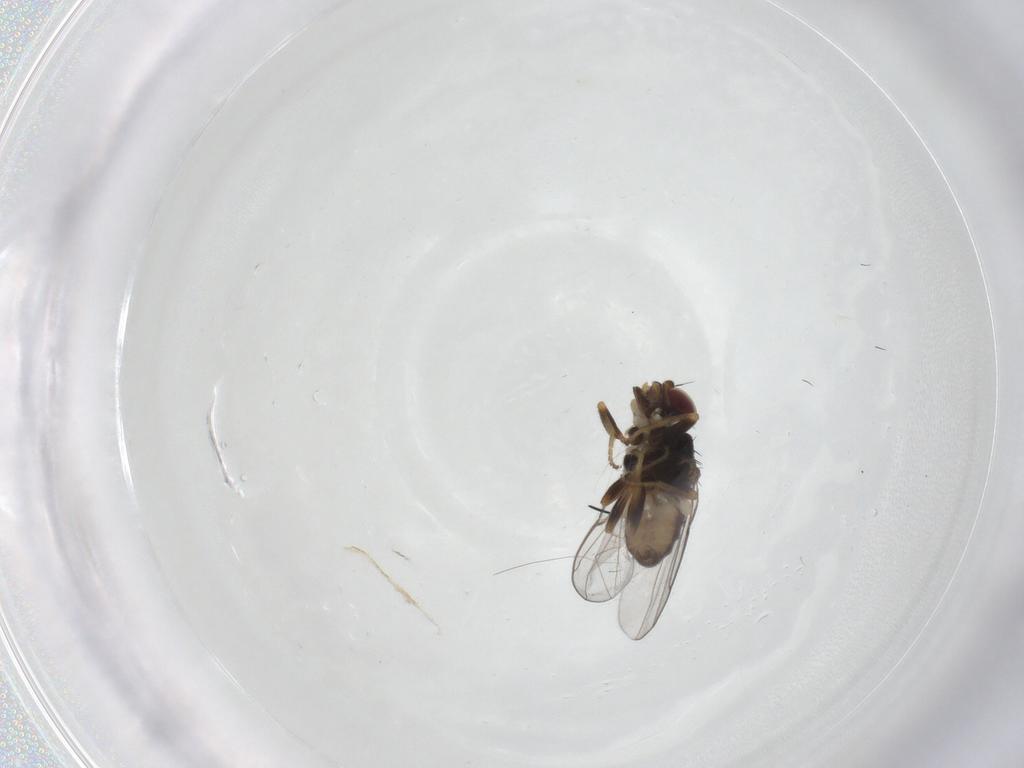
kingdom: Animalia
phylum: Arthropoda
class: Insecta
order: Diptera
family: Chloropidae
